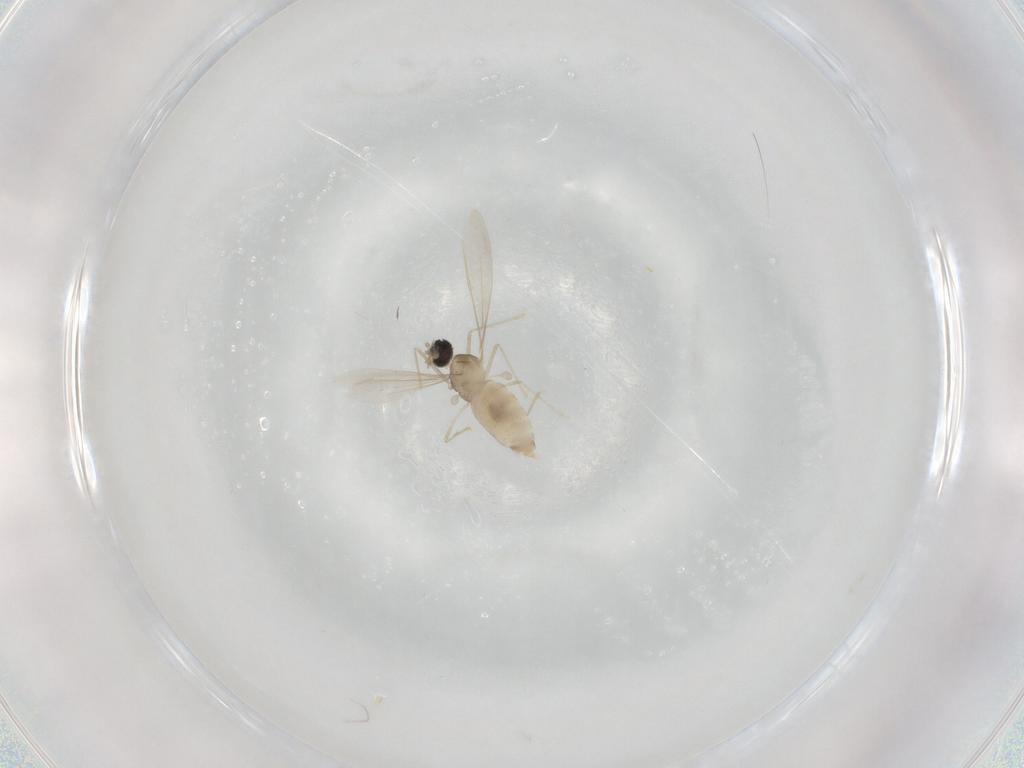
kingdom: Animalia
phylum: Arthropoda
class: Insecta
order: Diptera
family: Cecidomyiidae
